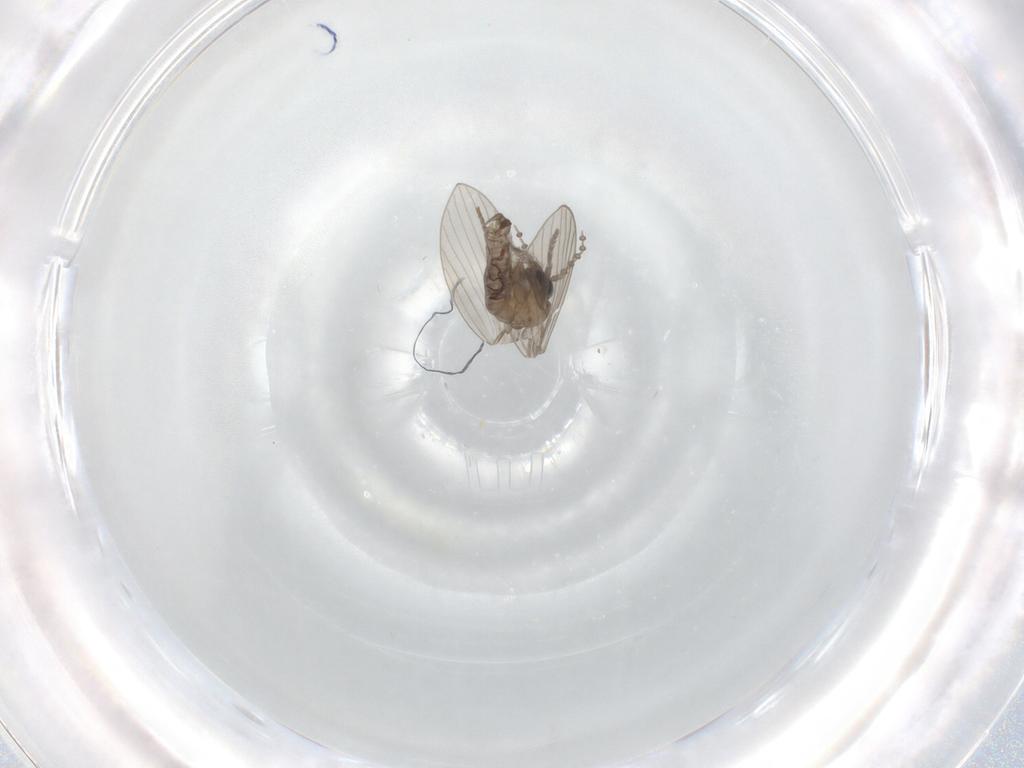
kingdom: Animalia
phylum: Arthropoda
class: Insecta
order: Diptera
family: Psychodidae
